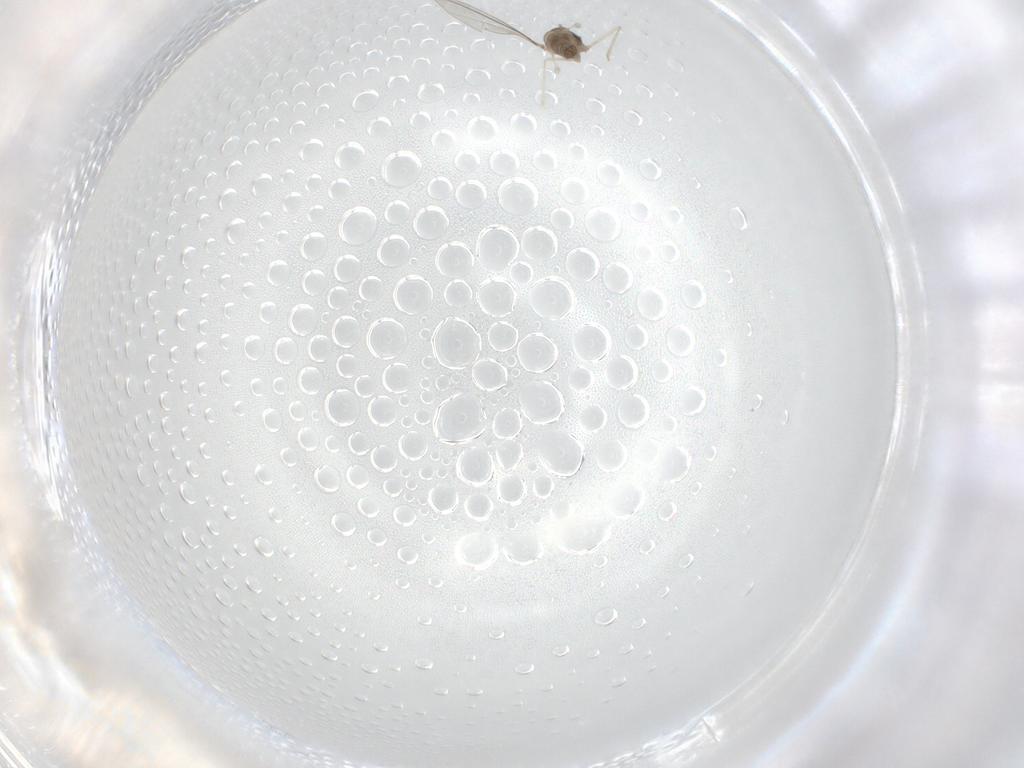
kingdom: Animalia
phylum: Arthropoda
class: Insecta
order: Diptera
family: Cecidomyiidae
